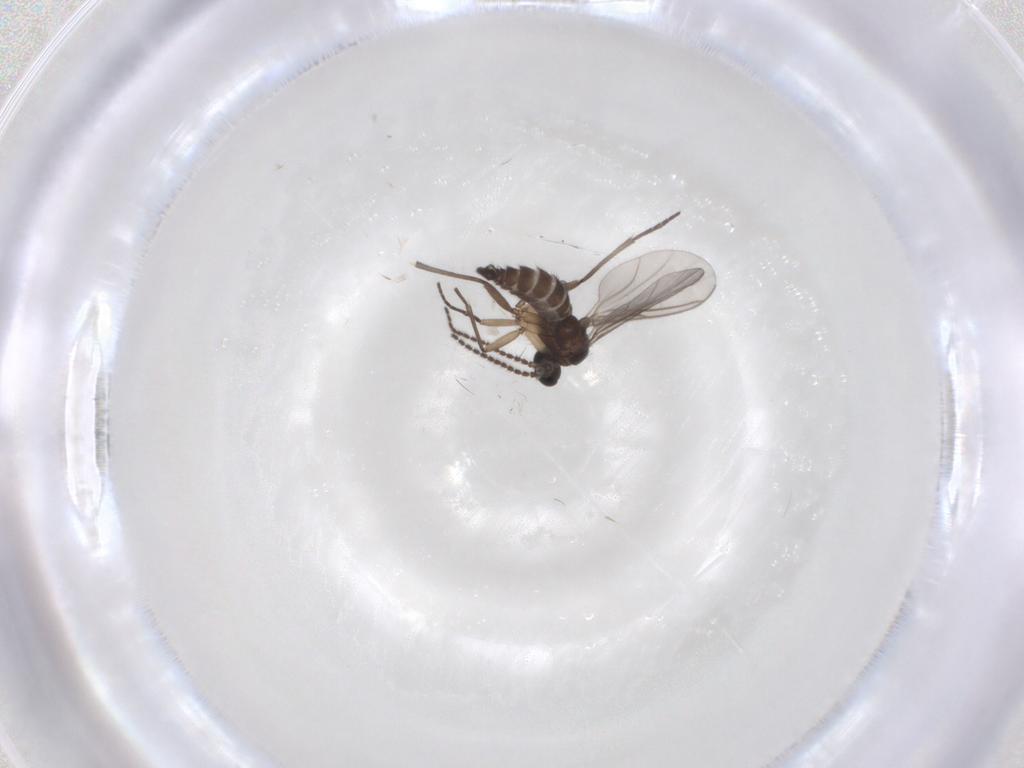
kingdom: Animalia
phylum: Arthropoda
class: Insecta
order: Diptera
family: Sciaridae
